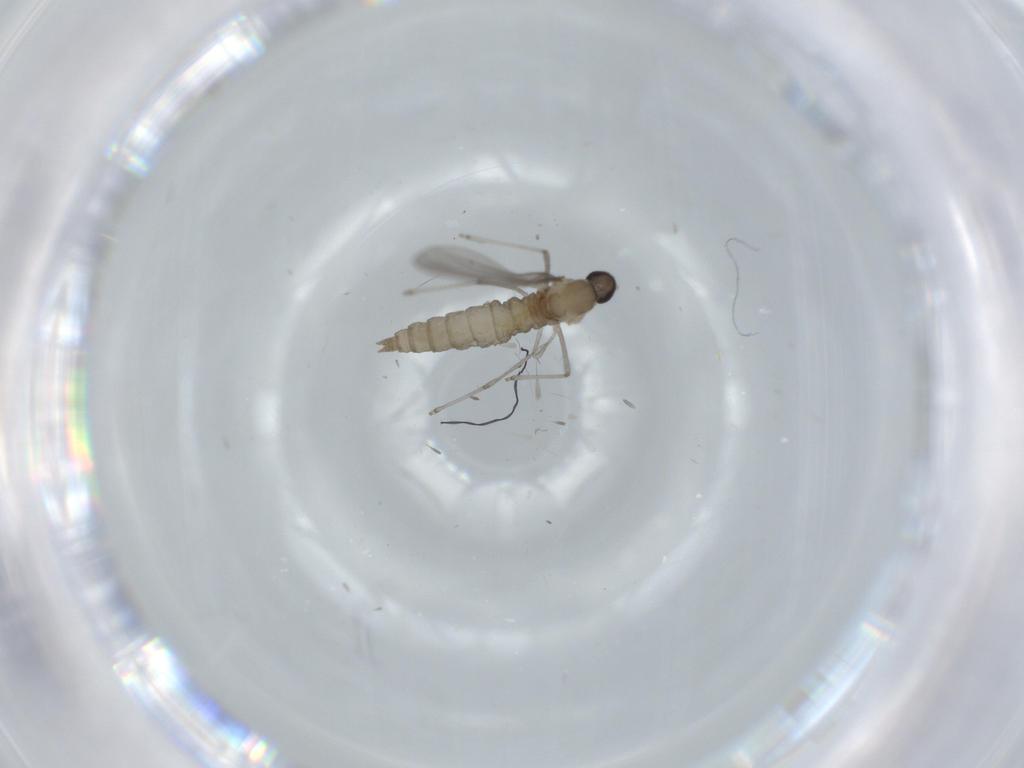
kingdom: Animalia
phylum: Arthropoda
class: Insecta
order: Diptera
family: Cecidomyiidae
